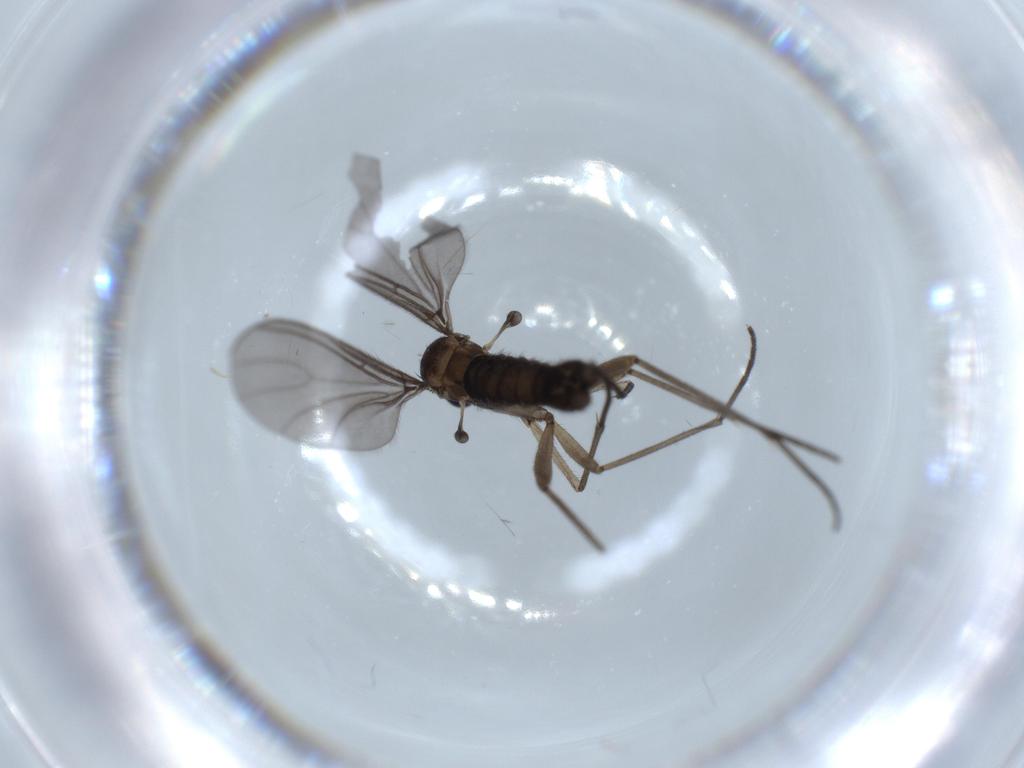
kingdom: Animalia
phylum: Arthropoda
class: Insecta
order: Diptera
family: Sciaridae
